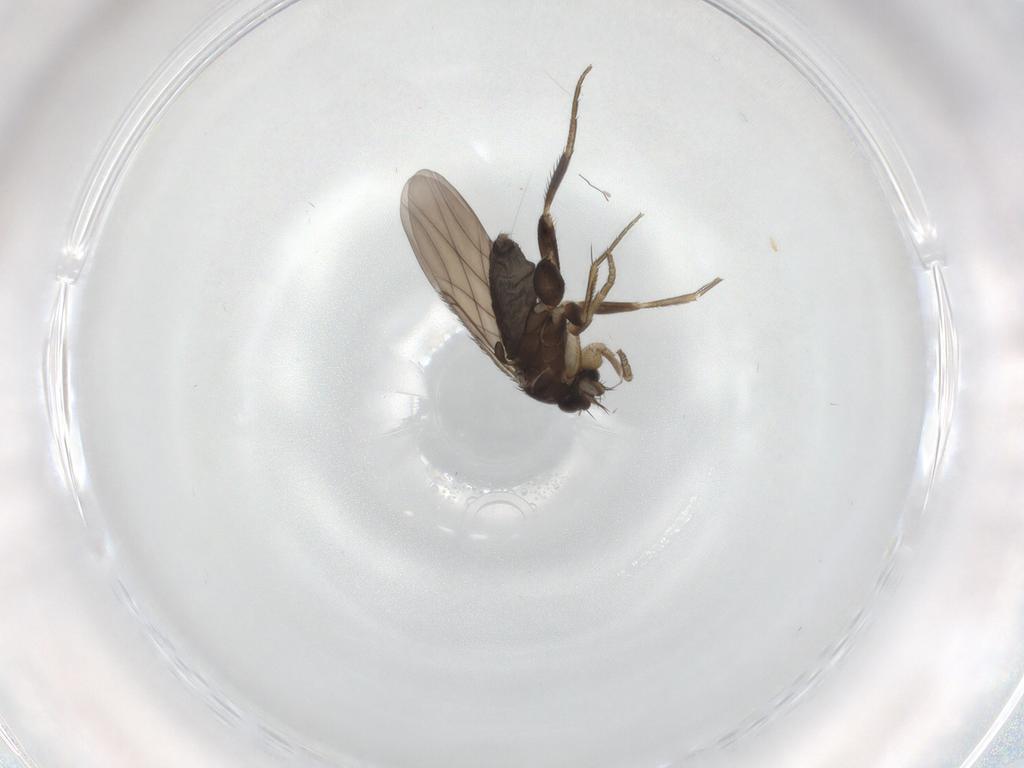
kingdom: Animalia
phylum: Arthropoda
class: Insecta
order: Diptera
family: Phoridae
